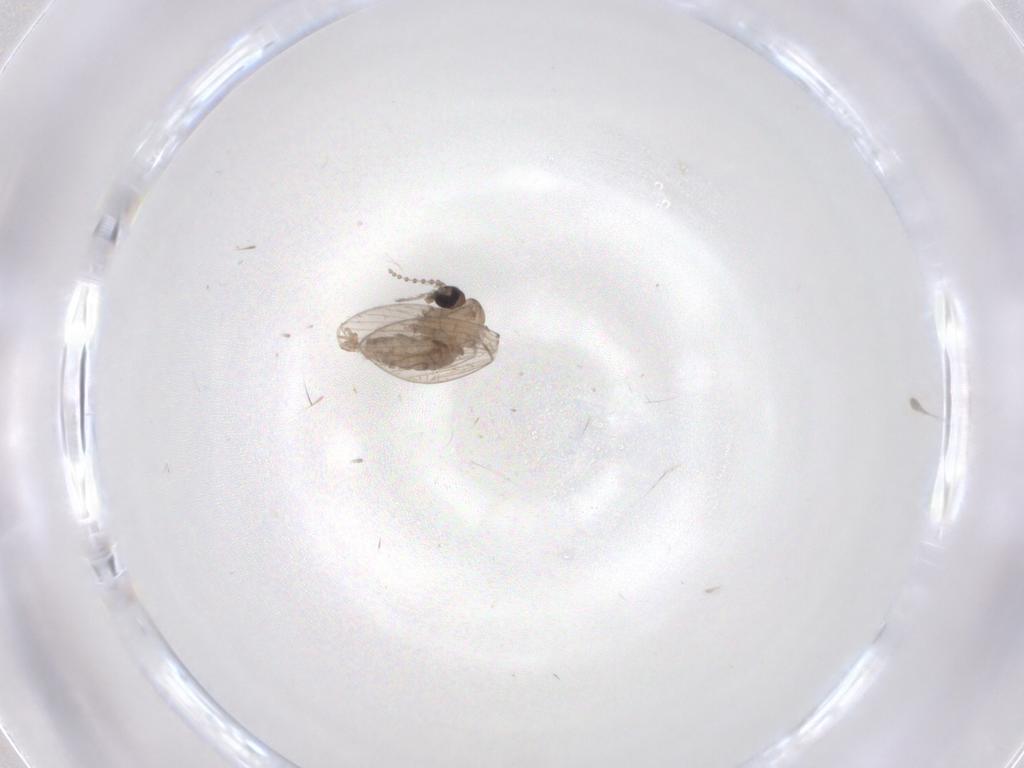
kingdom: Animalia
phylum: Arthropoda
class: Insecta
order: Diptera
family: Psychodidae
